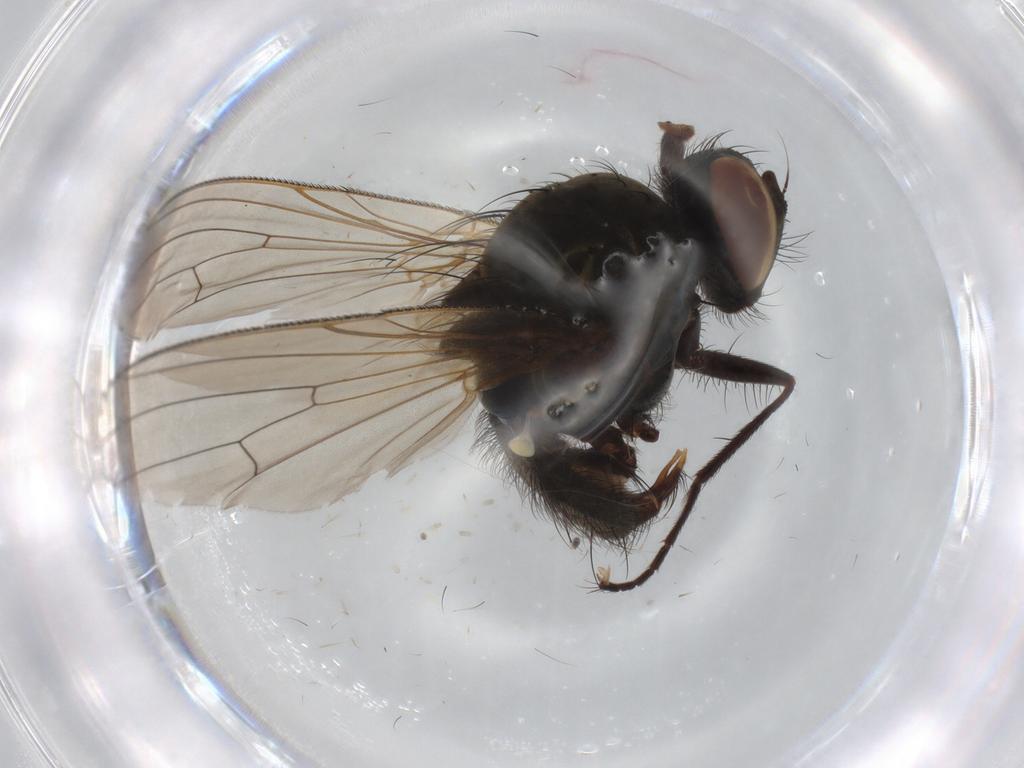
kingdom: Animalia
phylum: Arthropoda
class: Insecta
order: Diptera
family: Anthomyiidae
